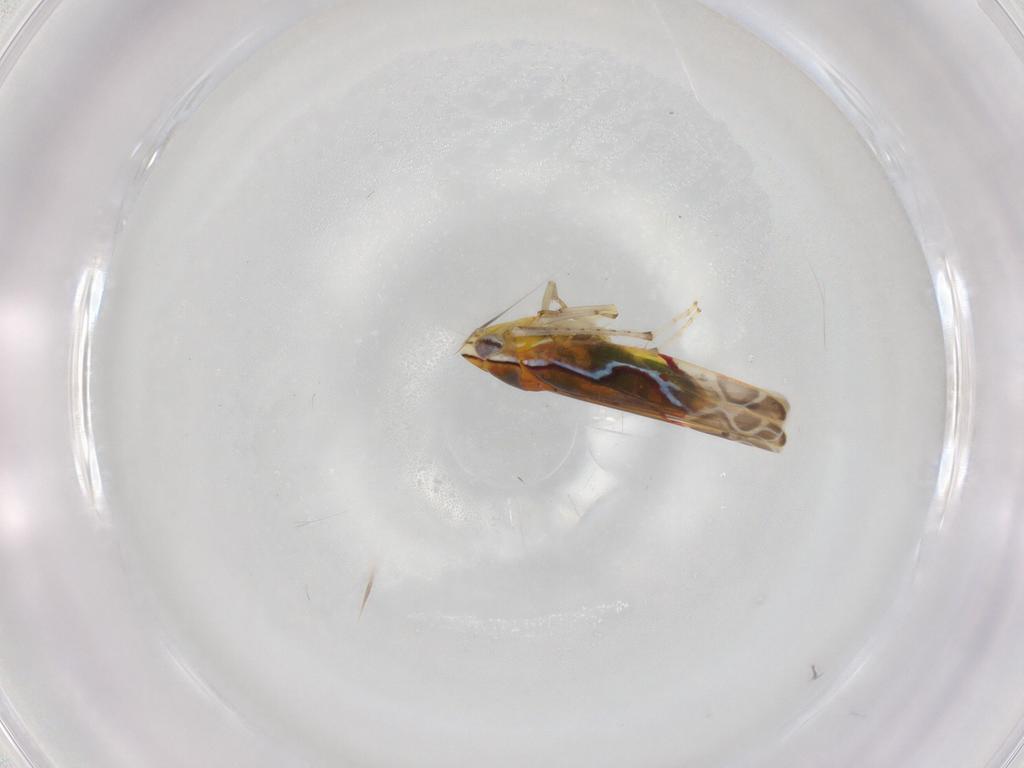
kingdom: Animalia
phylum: Arthropoda
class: Insecta
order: Hemiptera
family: Cicadellidae
